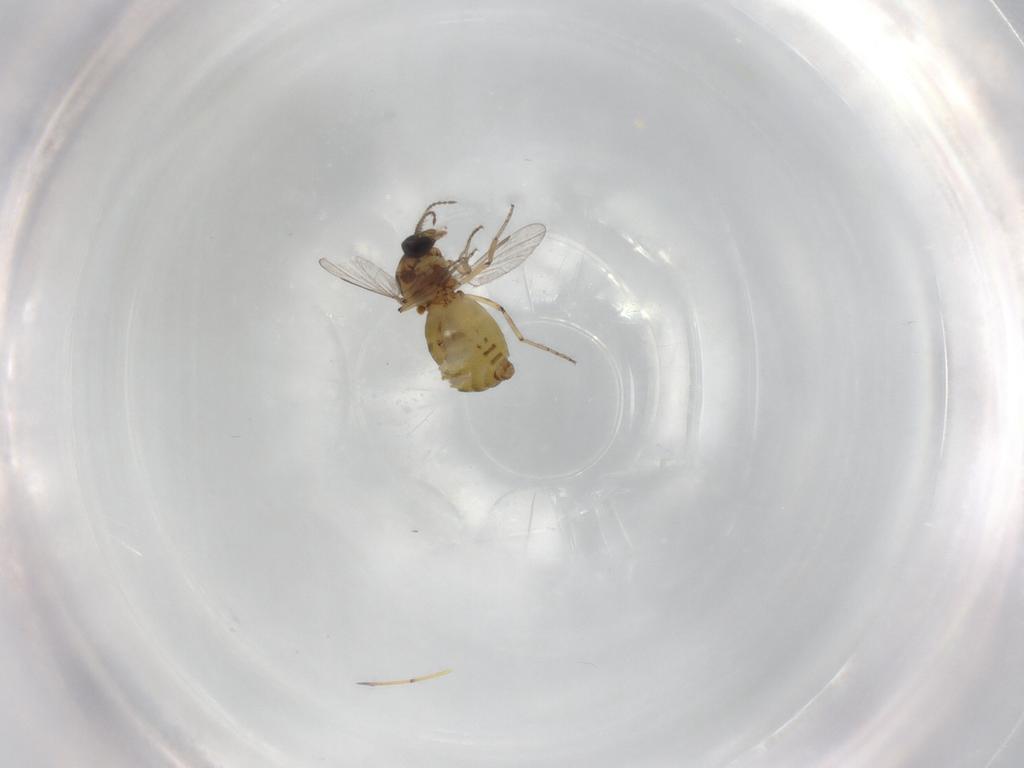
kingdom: Animalia
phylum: Arthropoda
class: Insecta
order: Diptera
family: Ceratopogonidae
